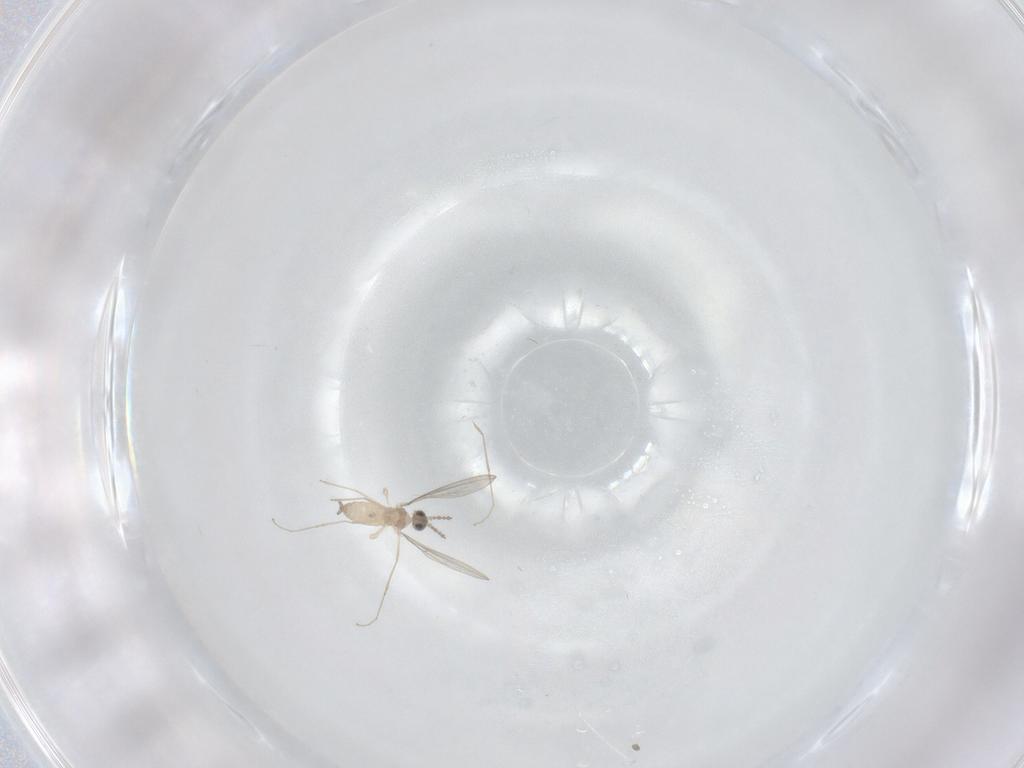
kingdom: Animalia
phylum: Arthropoda
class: Insecta
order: Diptera
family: Cecidomyiidae
